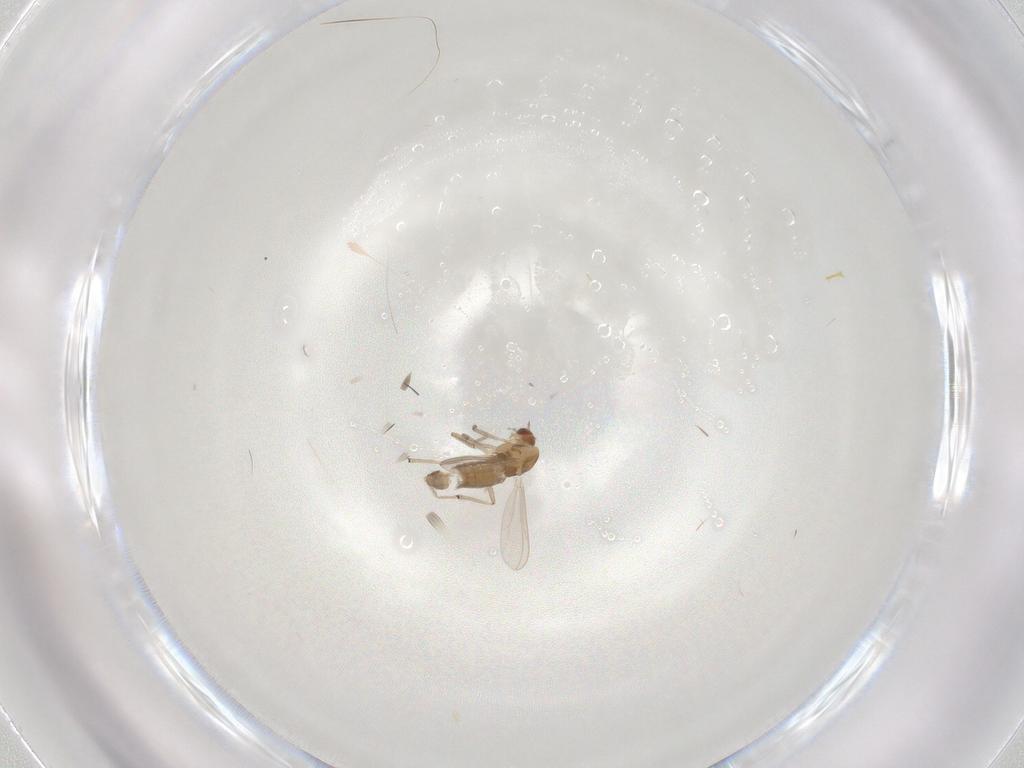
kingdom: Animalia
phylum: Arthropoda
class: Insecta
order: Diptera
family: Chironomidae
